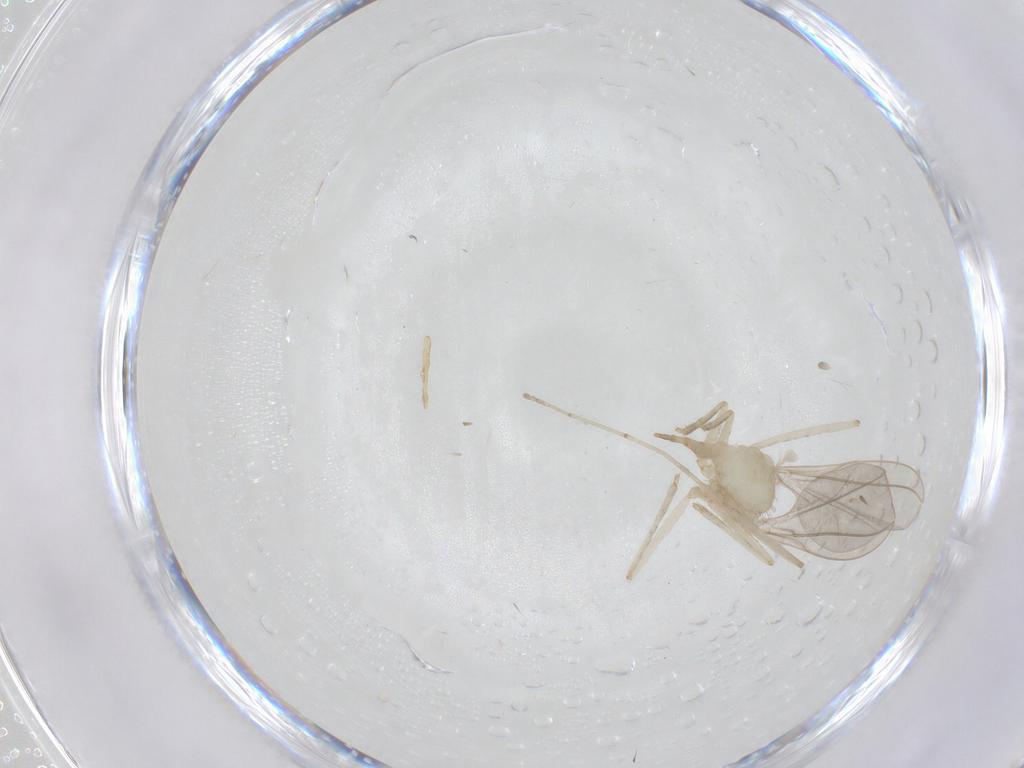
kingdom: Animalia
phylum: Arthropoda
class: Insecta
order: Diptera
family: Cecidomyiidae
